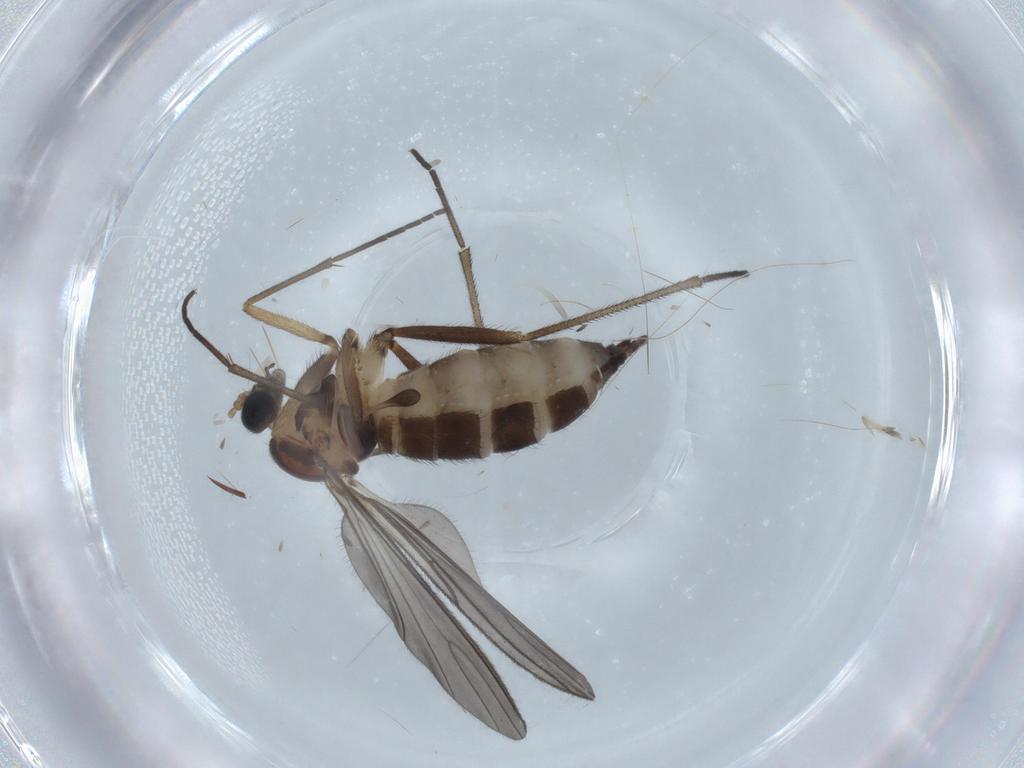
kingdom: Animalia
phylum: Arthropoda
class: Insecta
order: Diptera
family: Sciaridae
